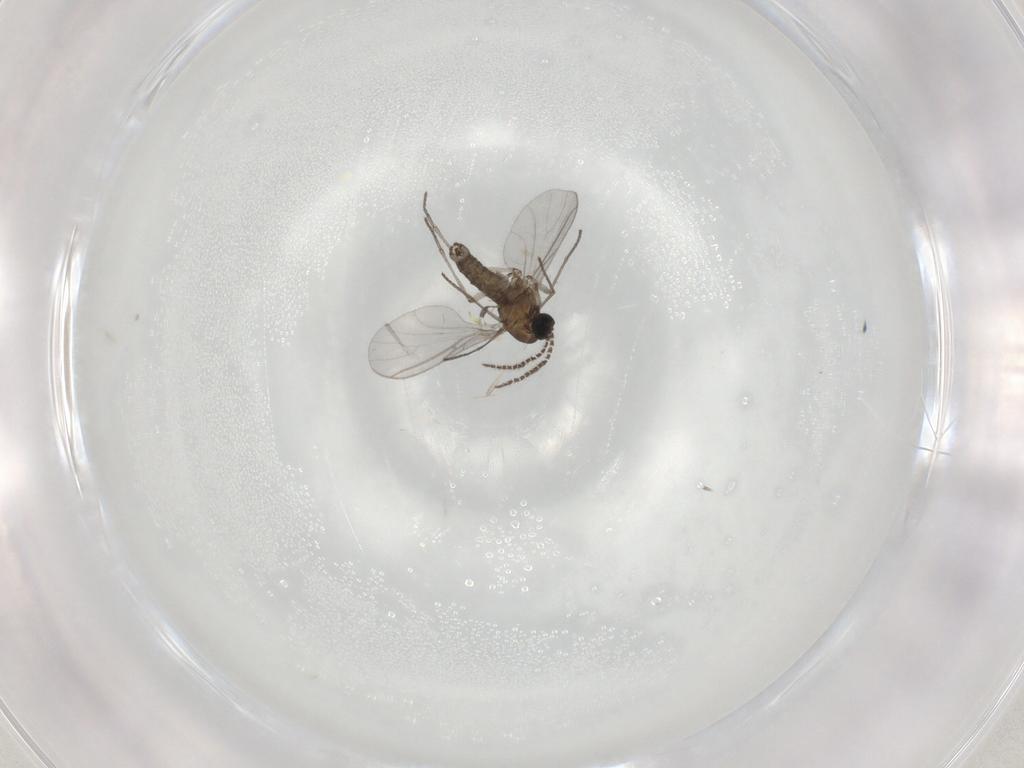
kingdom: Animalia
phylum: Arthropoda
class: Insecta
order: Diptera
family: Sciaridae
